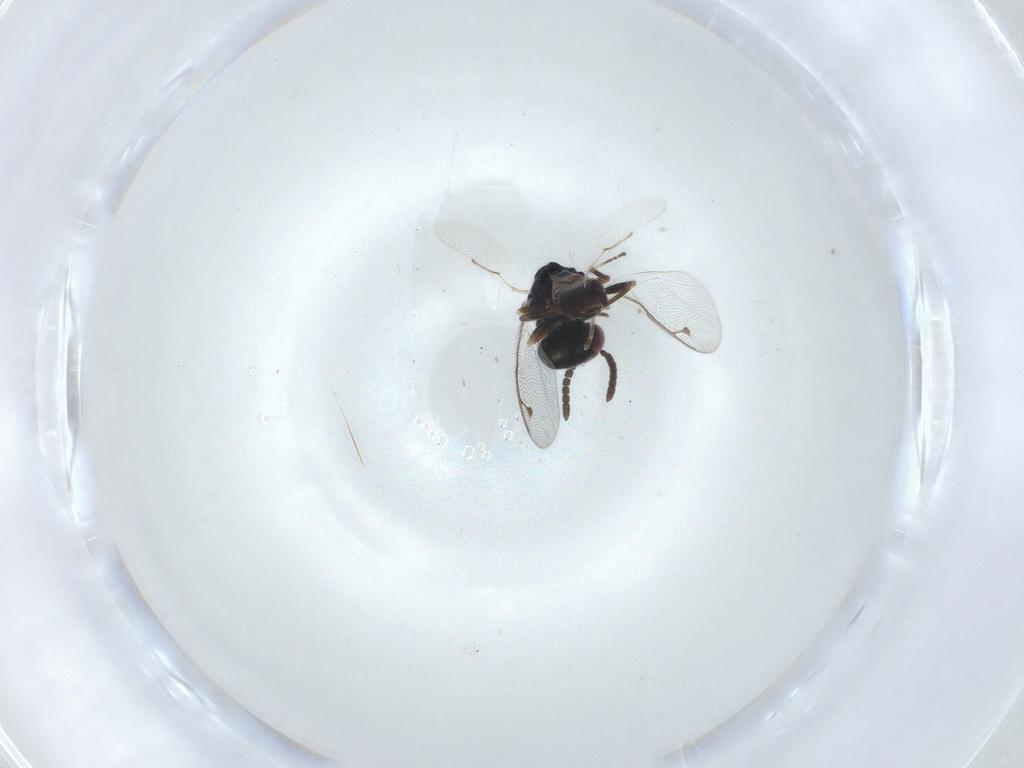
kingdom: Animalia
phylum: Arthropoda
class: Insecta
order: Hymenoptera
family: Pteromalidae
